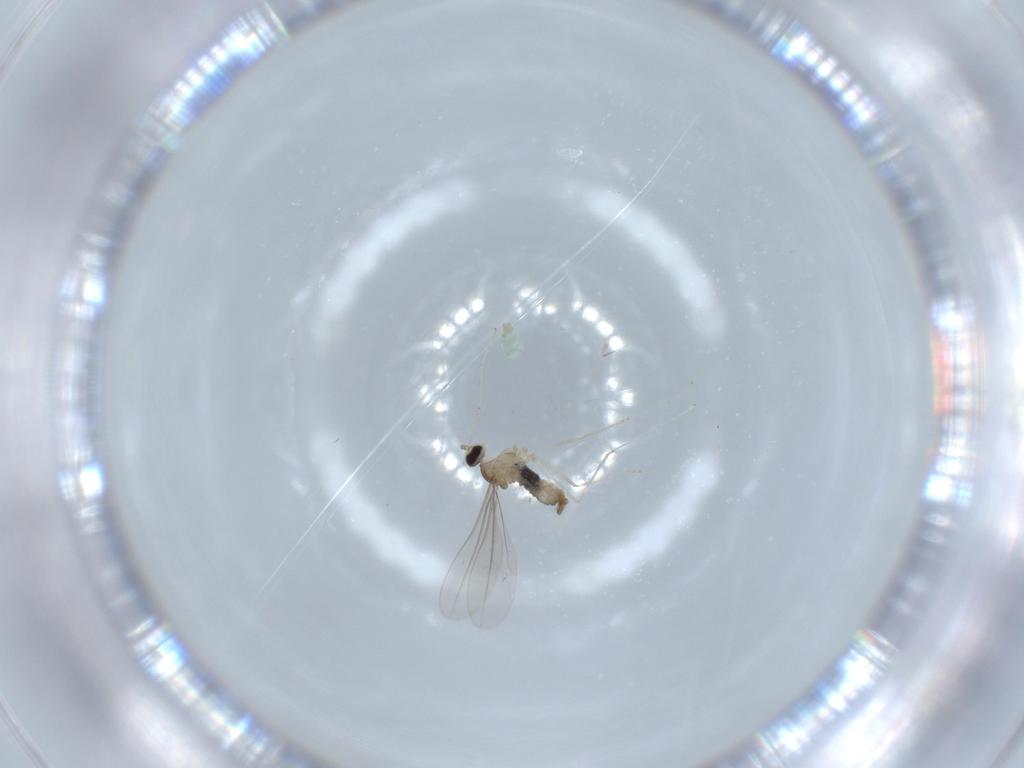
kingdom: Animalia
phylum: Arthropoda
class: Insecta
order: Diptera
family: Cecidomyiidae
